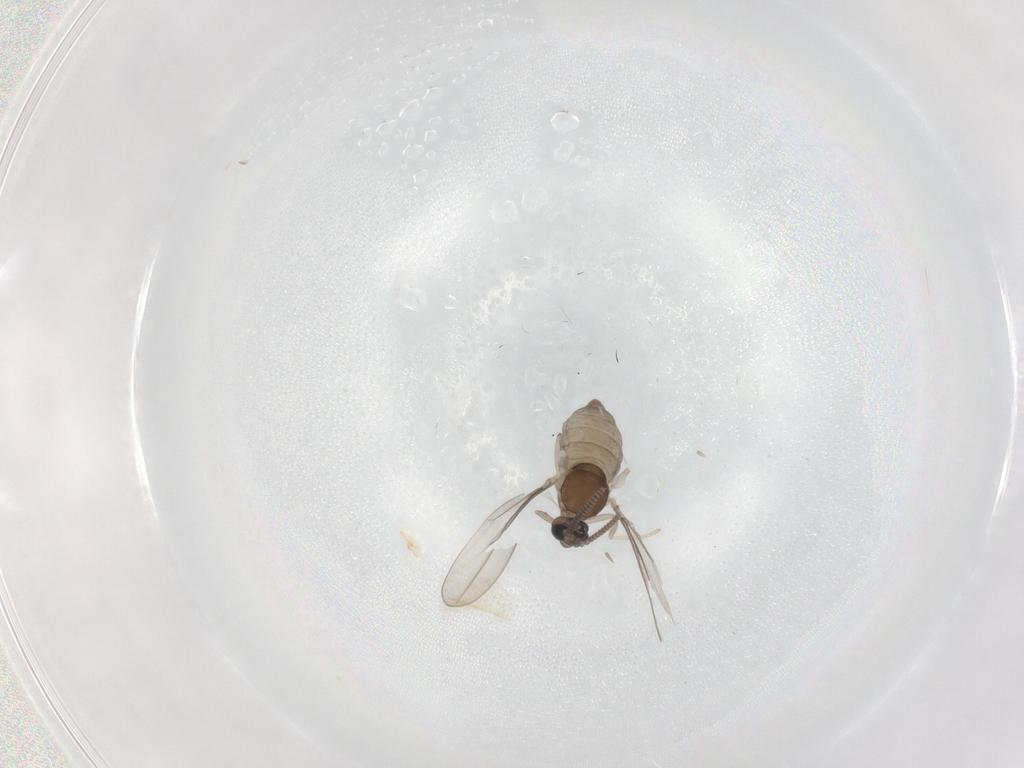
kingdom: Animalia
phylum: Arthropoda
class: Insecta
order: Diptera
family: Cecidomyiidae
